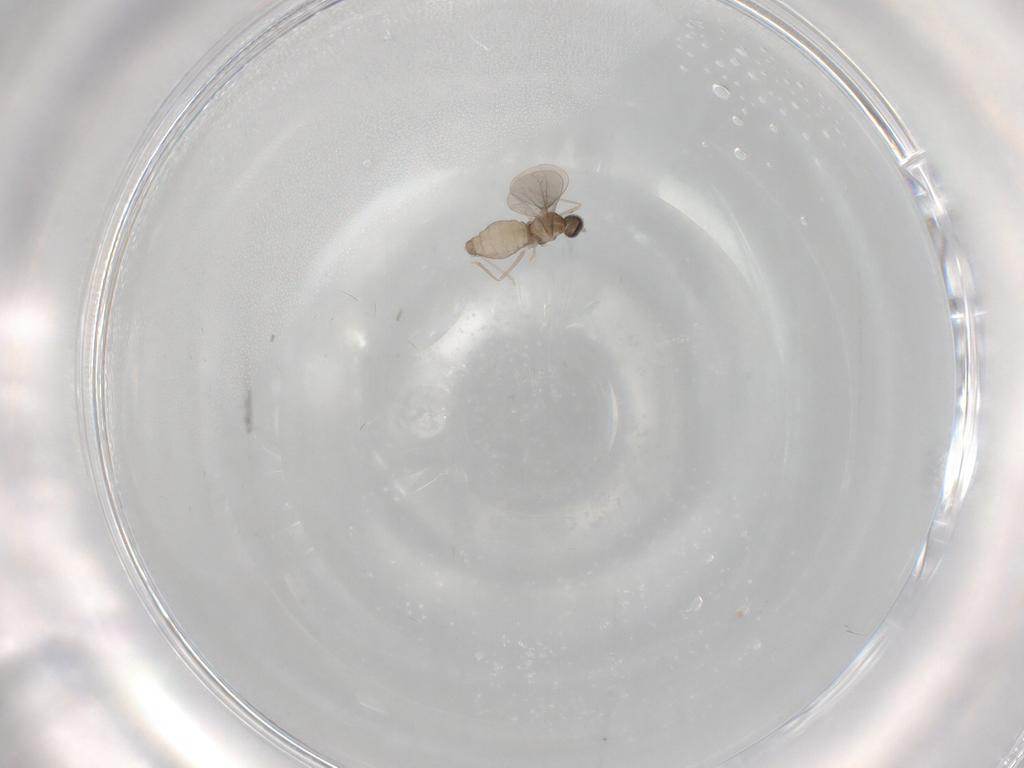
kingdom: Animalia
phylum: Arthropoda
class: Insecta
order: Diptera
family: Cecidomyiidae
